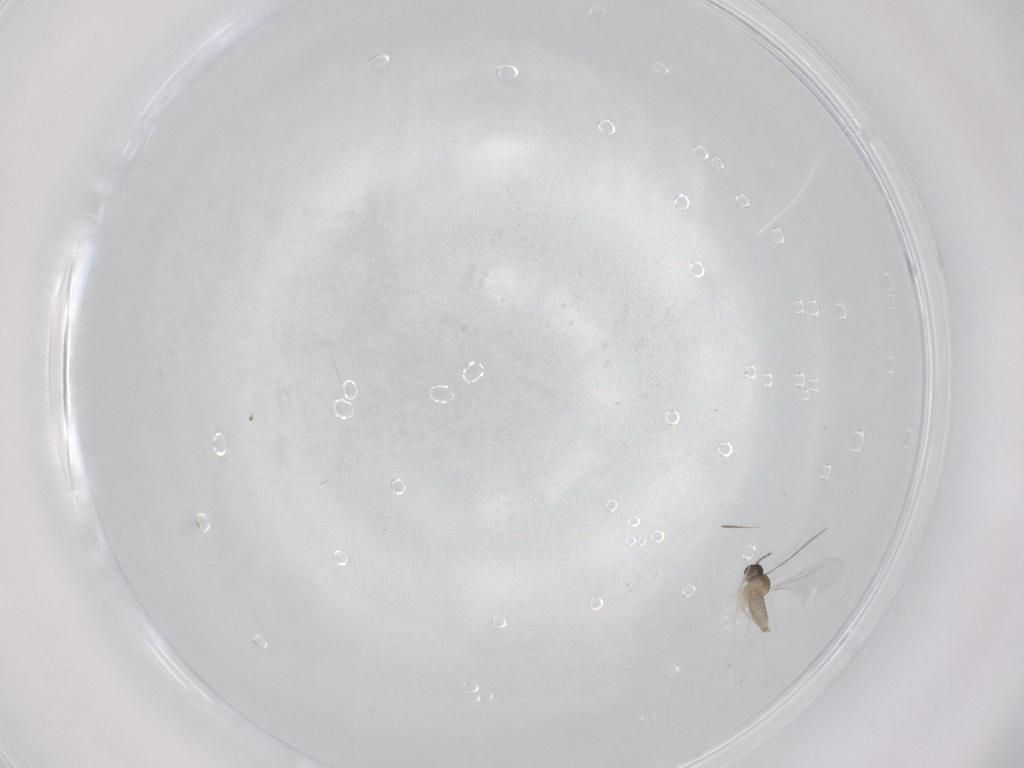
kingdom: Animalia
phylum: Arthropoda
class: Insecta
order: Diptera
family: Cecidomyiidae
